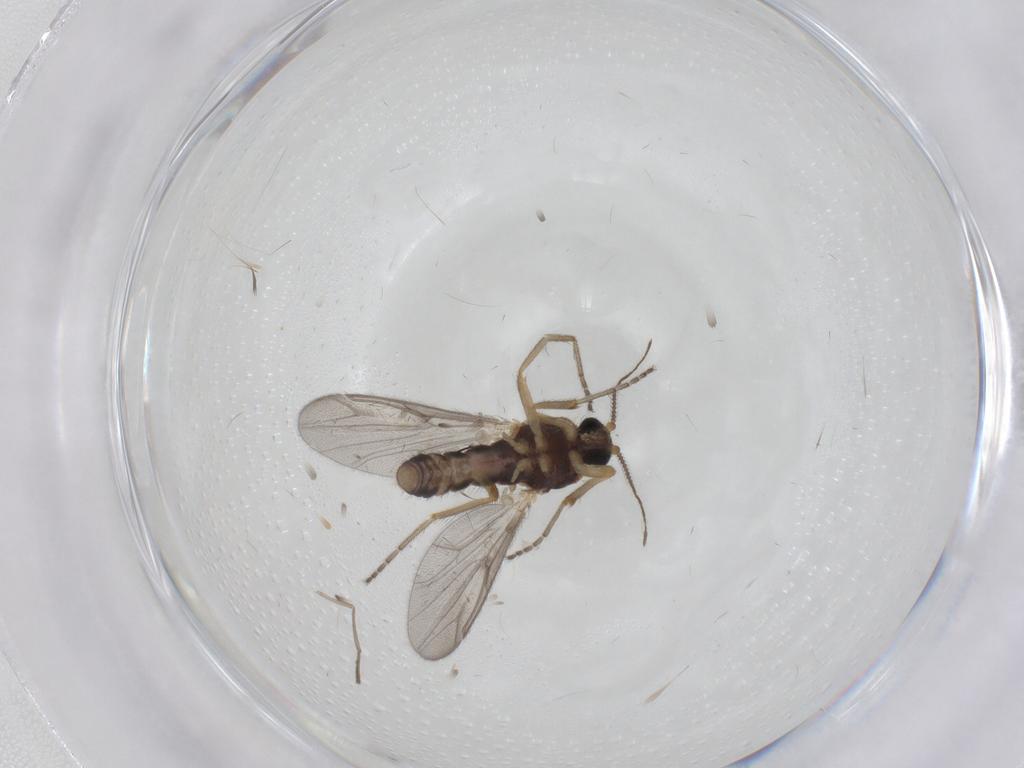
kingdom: Animalia
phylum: Arthropoda
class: Insecta
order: Diptera
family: Ceratopogonidae
